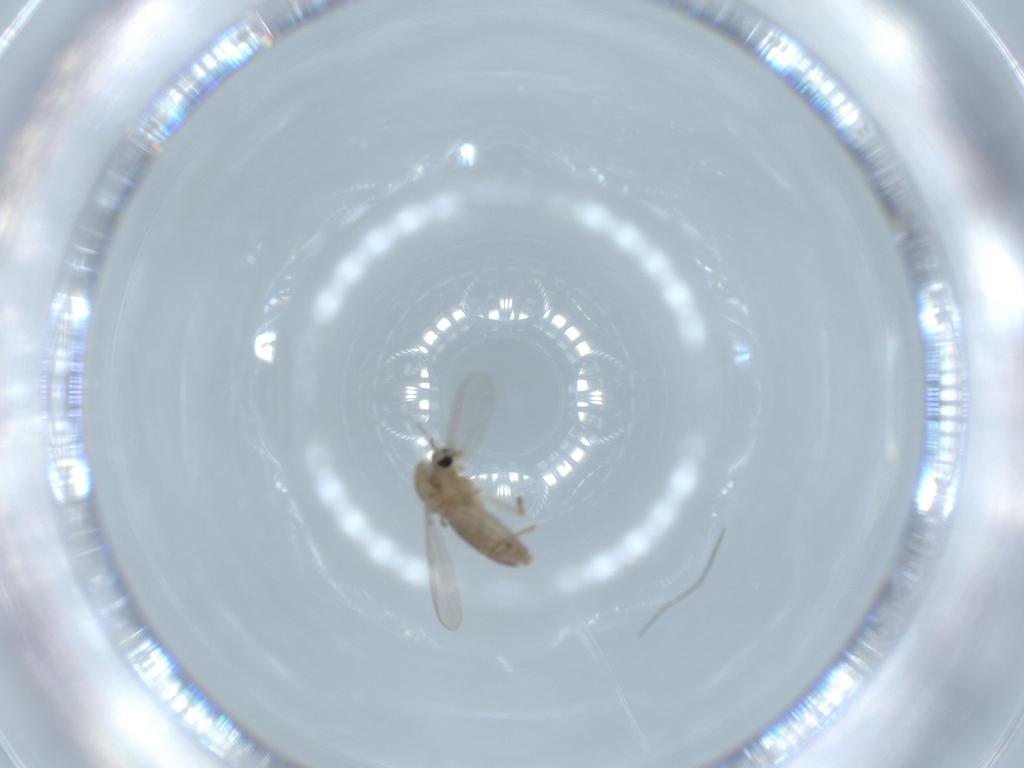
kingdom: Animalia
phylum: Arthropoda
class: Insecta
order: Diptera
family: Chironomidae
